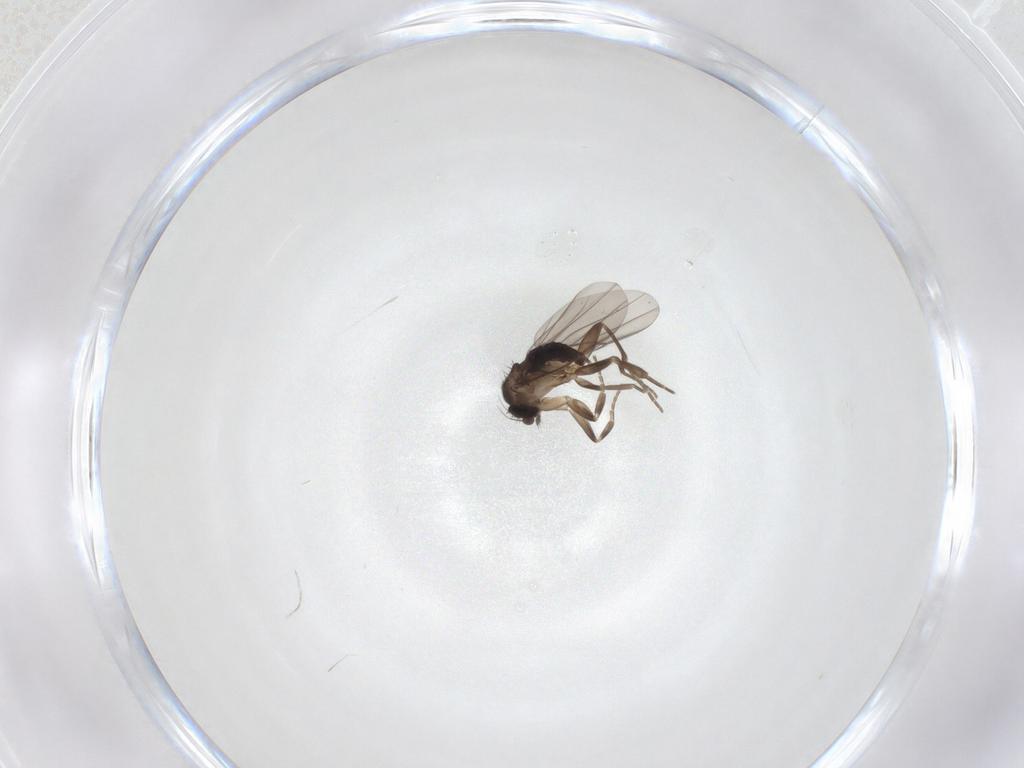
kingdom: Animalia
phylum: Arthropoda
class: Insecta
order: Diptera
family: Phoridae
